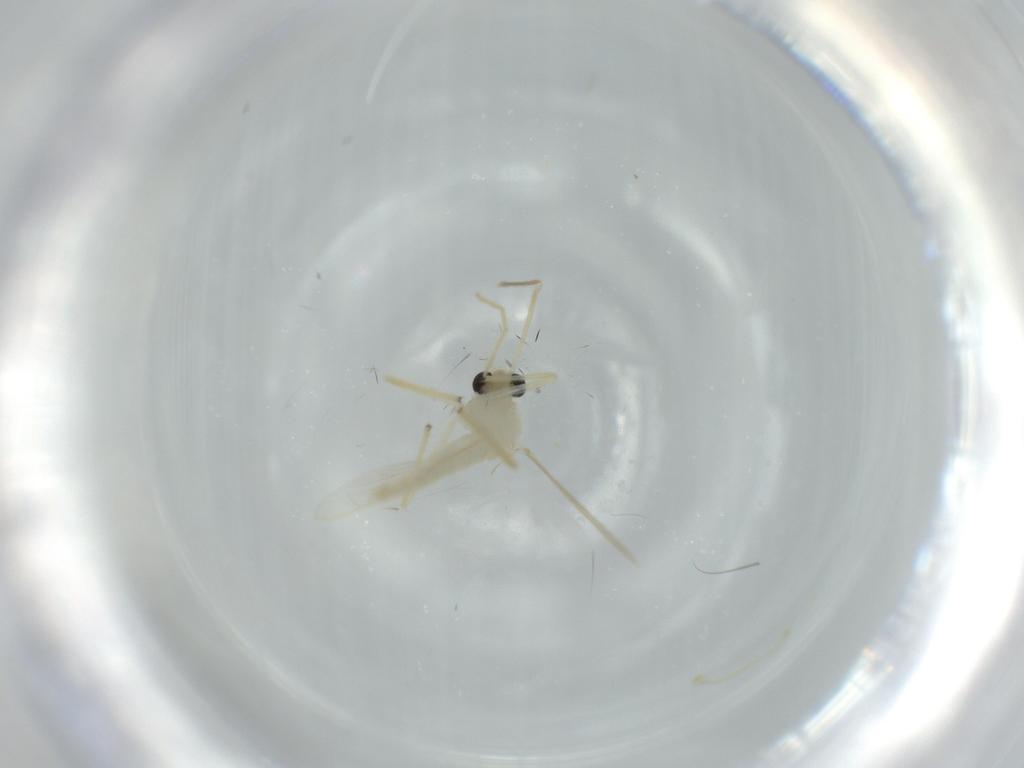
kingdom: Animalia
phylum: Arthropoda
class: Insecta
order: Diptera
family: Chironomidae
